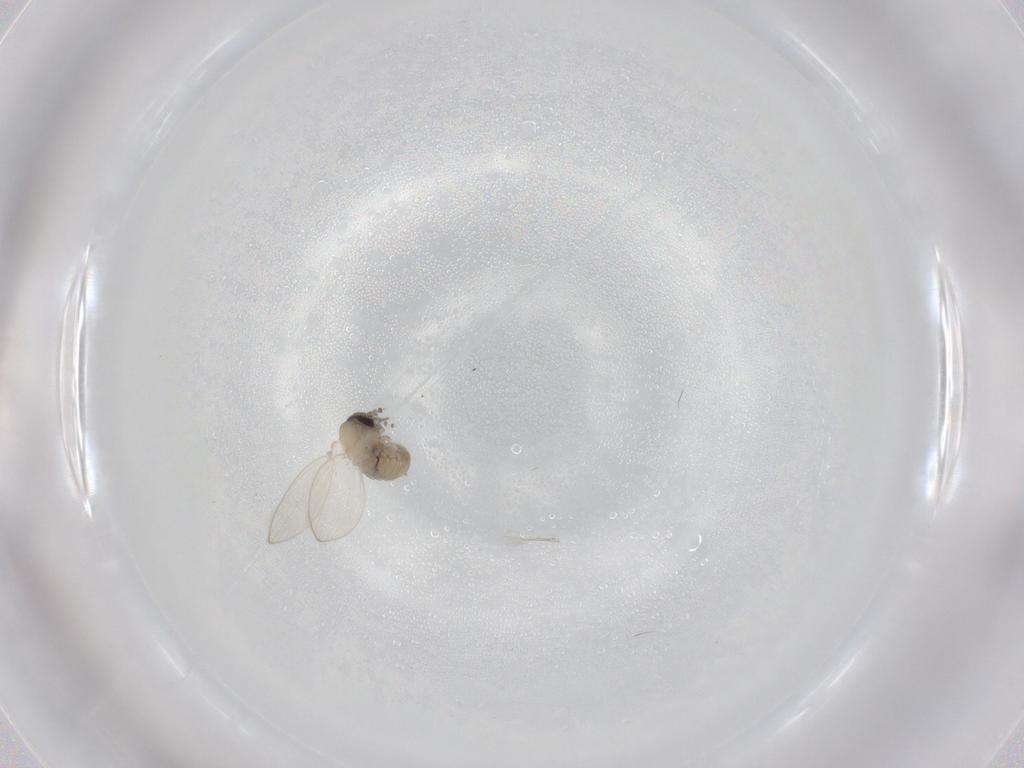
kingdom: Animalia
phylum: Arthropoda
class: Insecta
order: Diptera
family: Psychodidae
